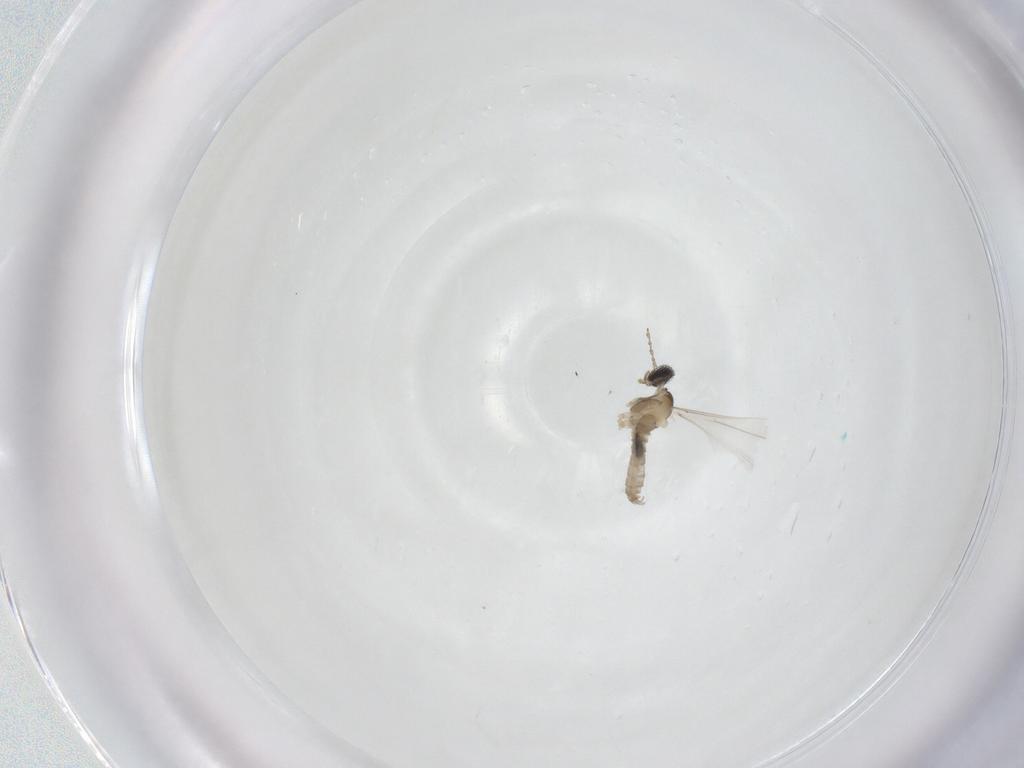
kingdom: Animalia
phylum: Arthropoda
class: Insecta
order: Diptera
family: Cecidomyiidae
